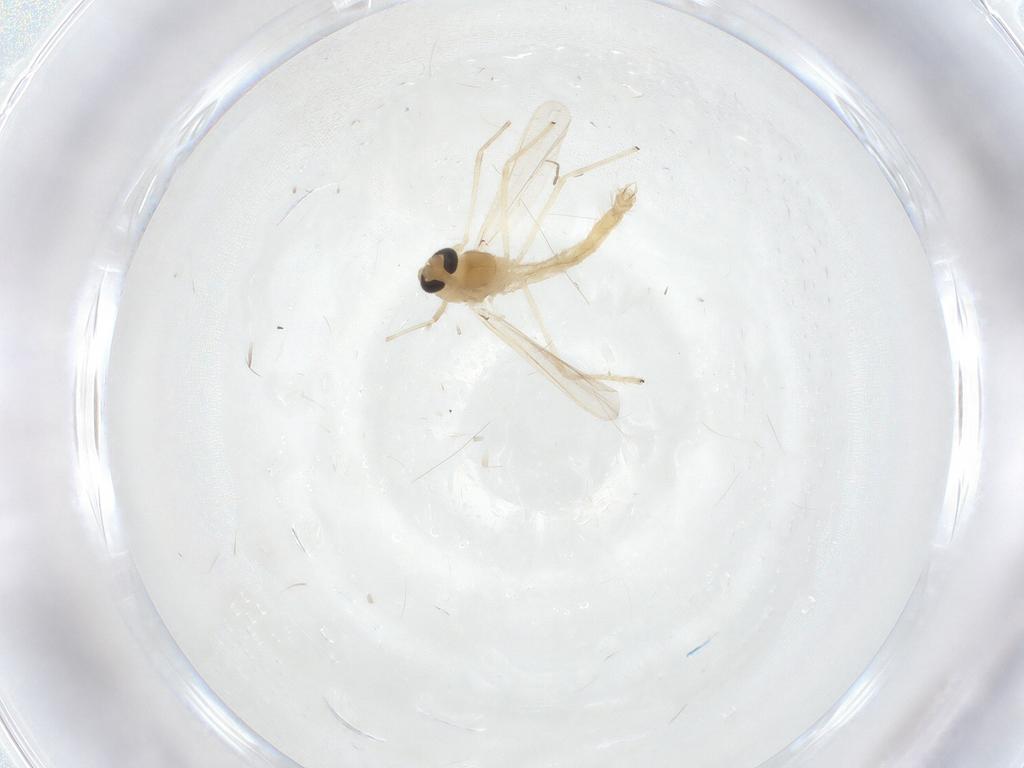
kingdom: Animalia
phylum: Arthropoda
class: Insecta
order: Diptera
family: Chironomidae
